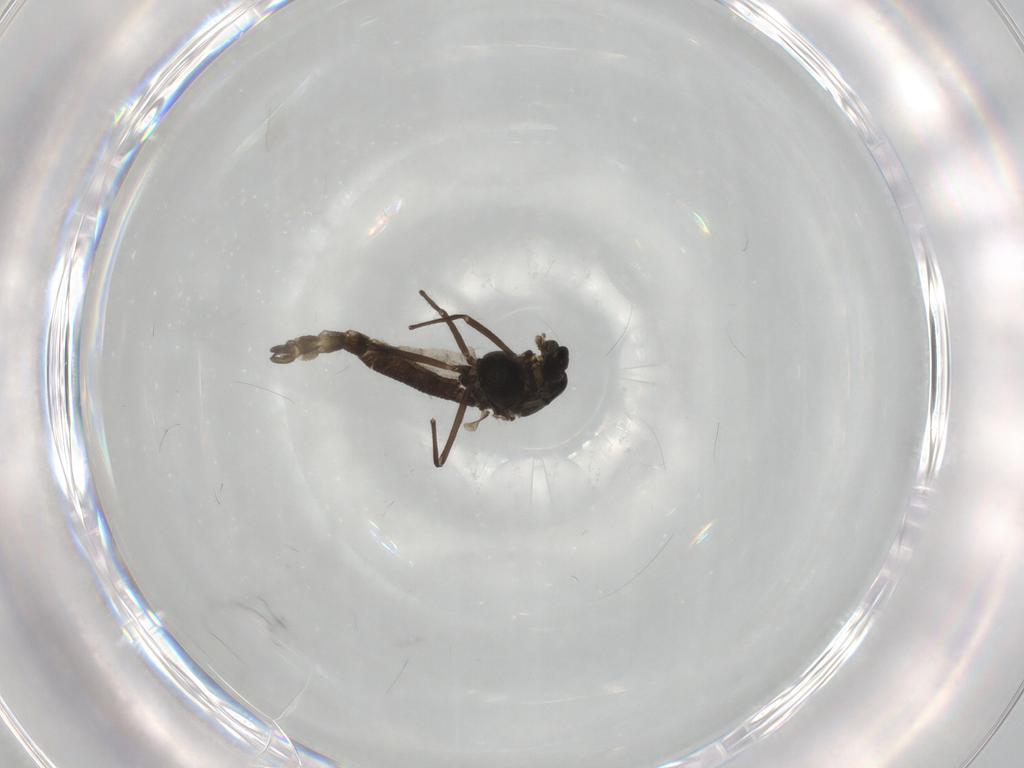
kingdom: Animalia
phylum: Arthropoda
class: Insecta
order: Diptera
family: Chironomidae
